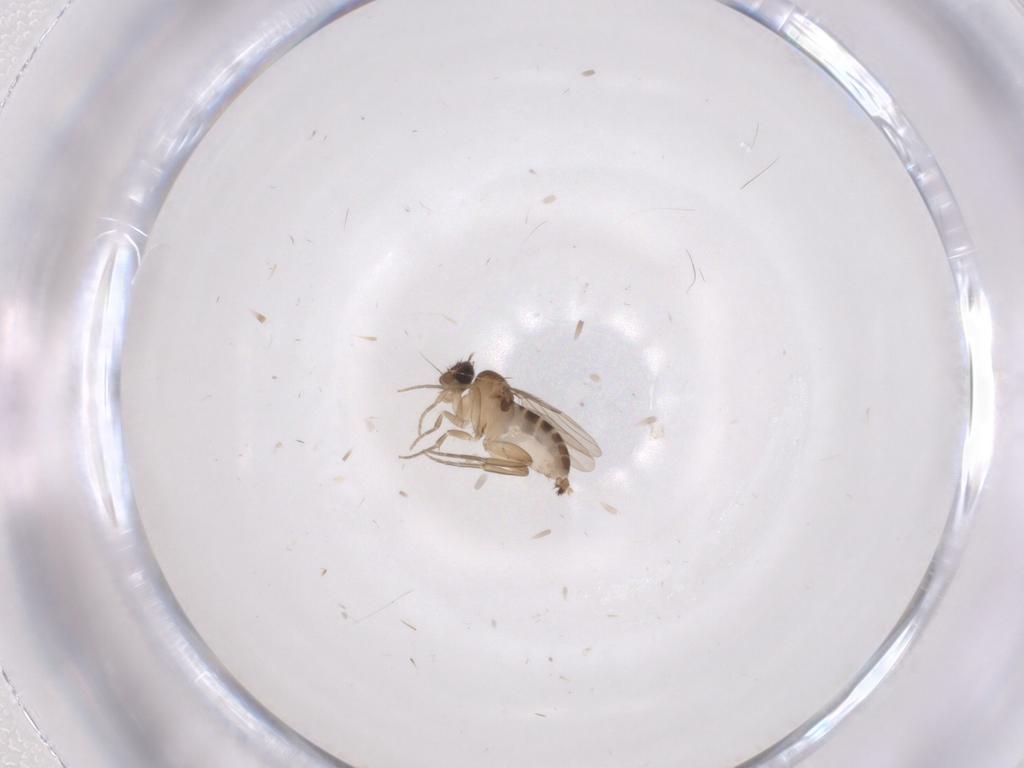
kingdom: Animalia
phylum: Arthropoda
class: Insecta
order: Diptera
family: Phoridae
